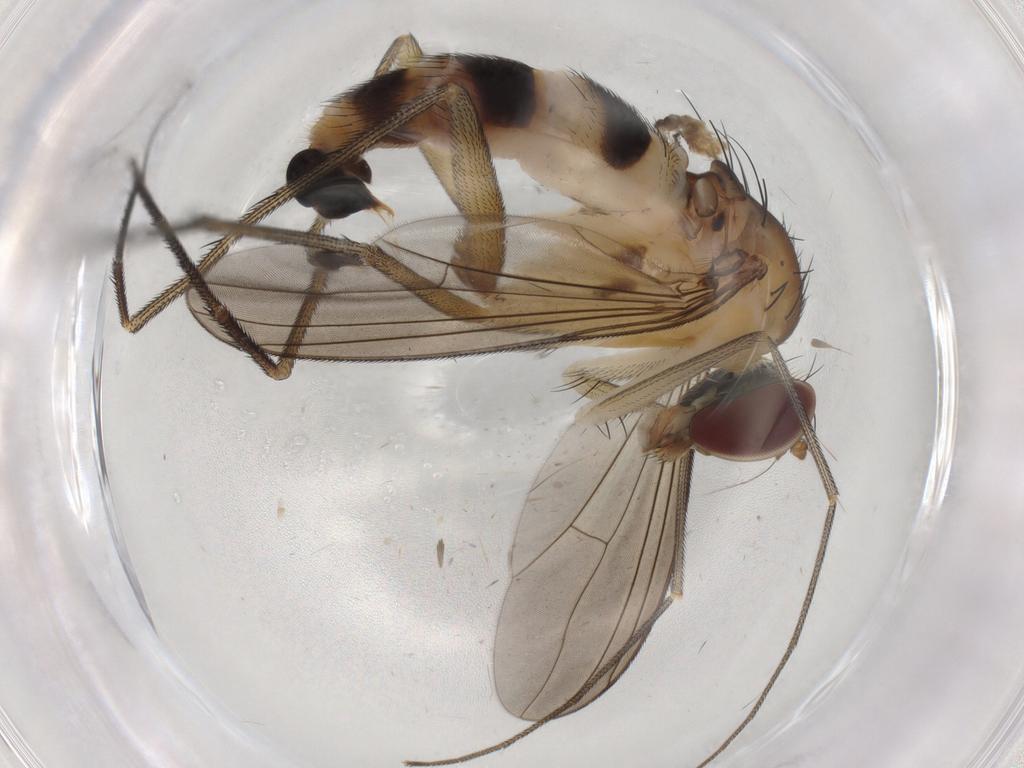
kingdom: Animalia
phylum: Arthropoda
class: Insecta
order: Diptera
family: Dolichopodidae
